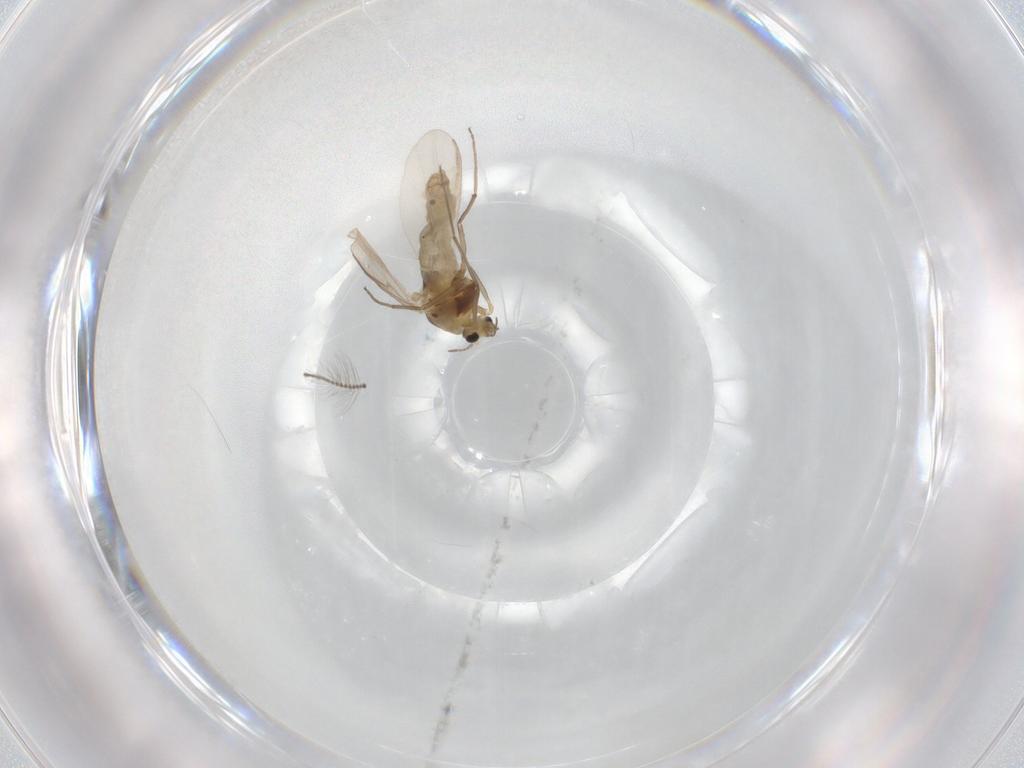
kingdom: Animalia
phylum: Arthropoda
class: Insecta
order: Diptera
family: Chironomidae
